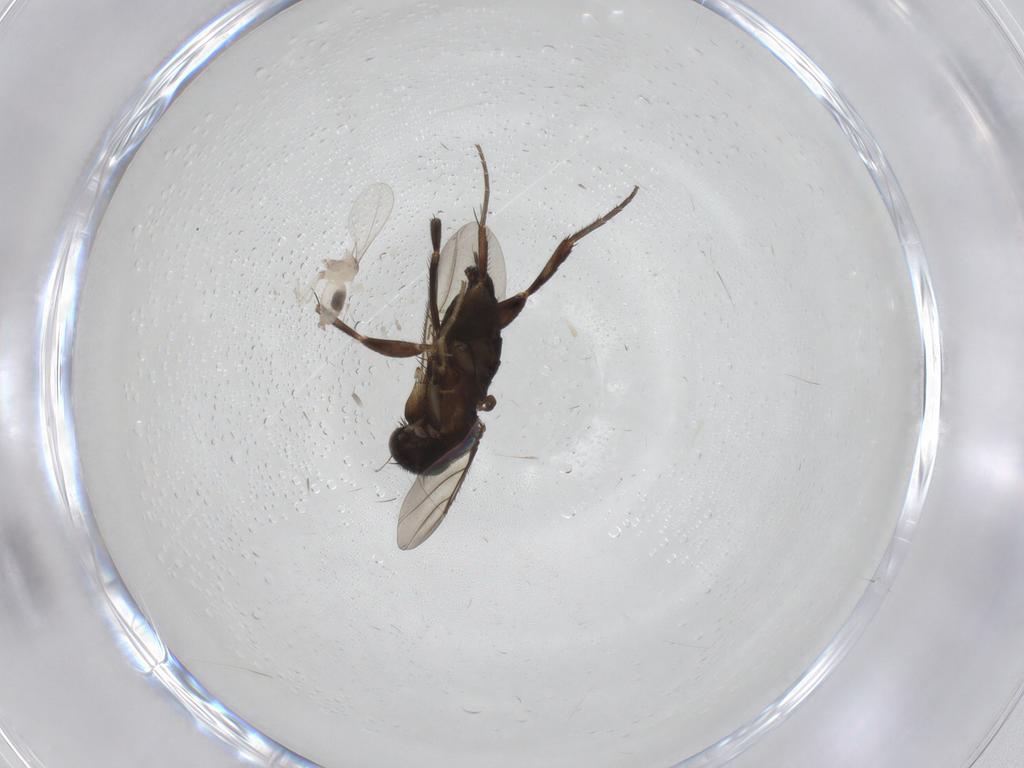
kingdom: Animalia
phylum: Arthropoda
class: Insecta
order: Diptera
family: Phoridae
